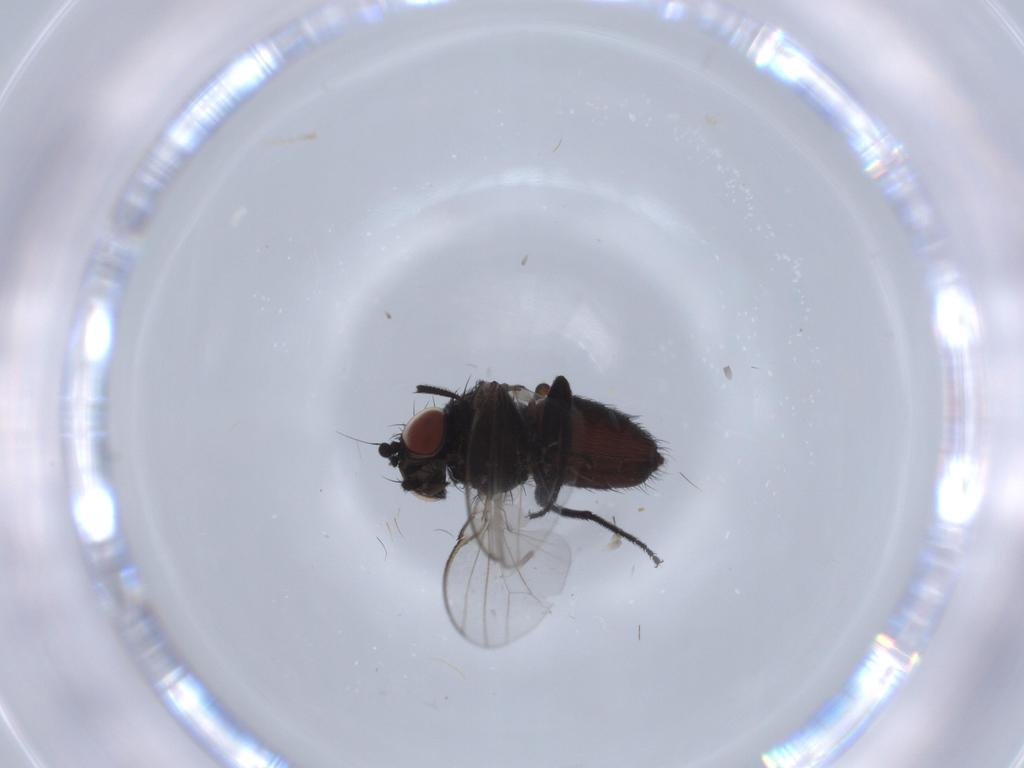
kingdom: Animalia
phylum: Arthropoda
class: Insecta
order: Diptera
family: Milichiidae
